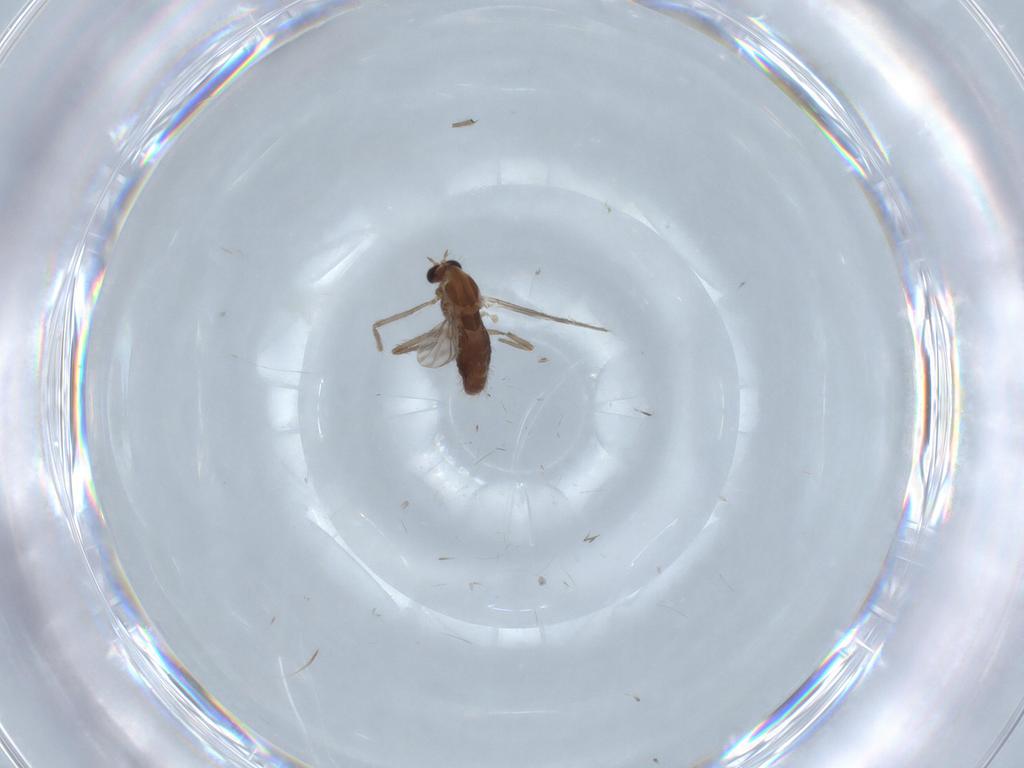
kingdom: Animalia
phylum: Arthropoda
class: Insecta
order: Diptera
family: Chironomidae
